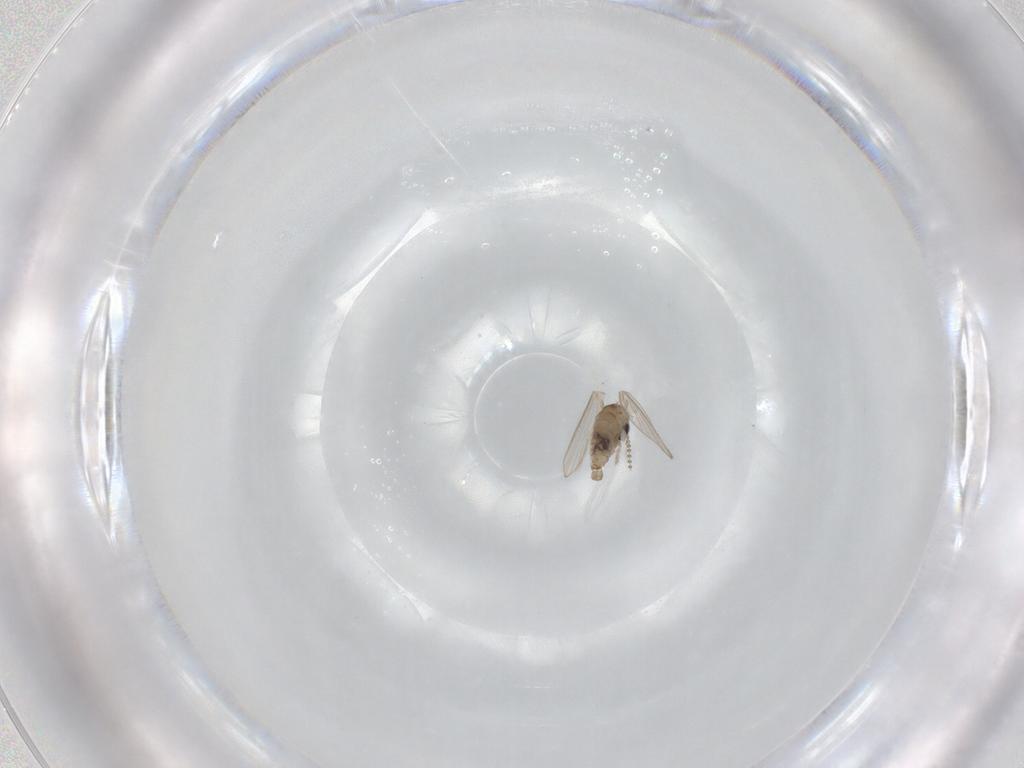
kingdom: Animalia
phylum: Arthropoda
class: Insecta
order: Diptera
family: Psychodidae
